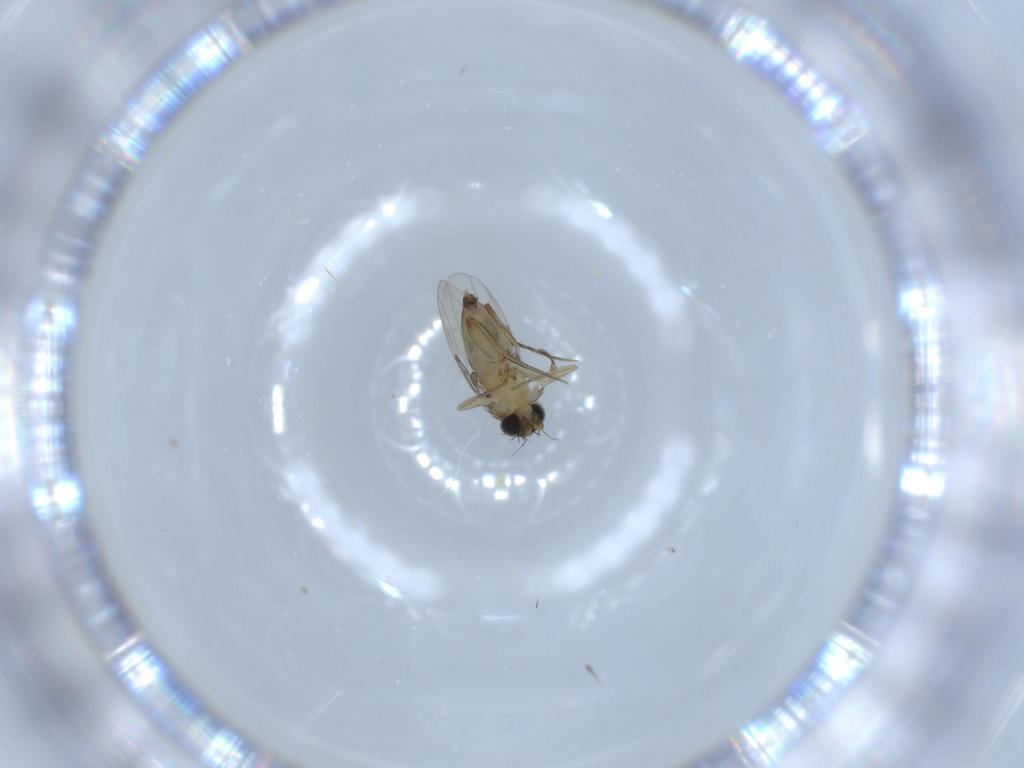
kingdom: Animalia
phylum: Arthropoda
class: Insecta
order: Diptera
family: Phoridae
